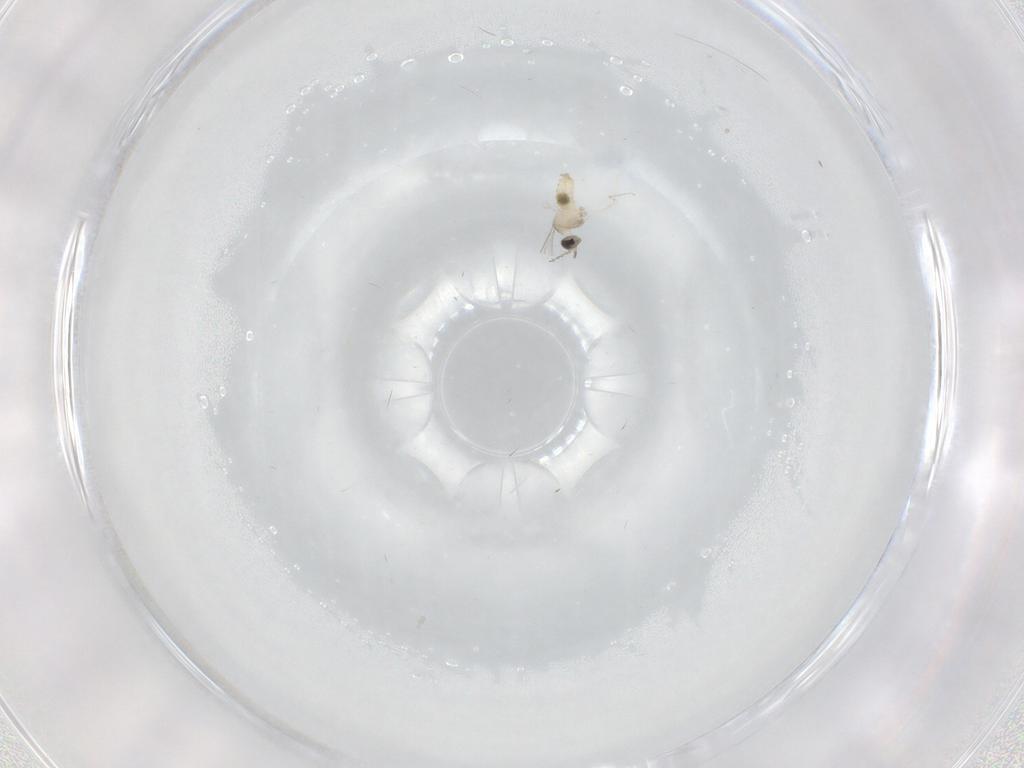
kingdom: Animalia
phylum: Arthropoda
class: Insecta
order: Diptera
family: Cecidomyiidae
